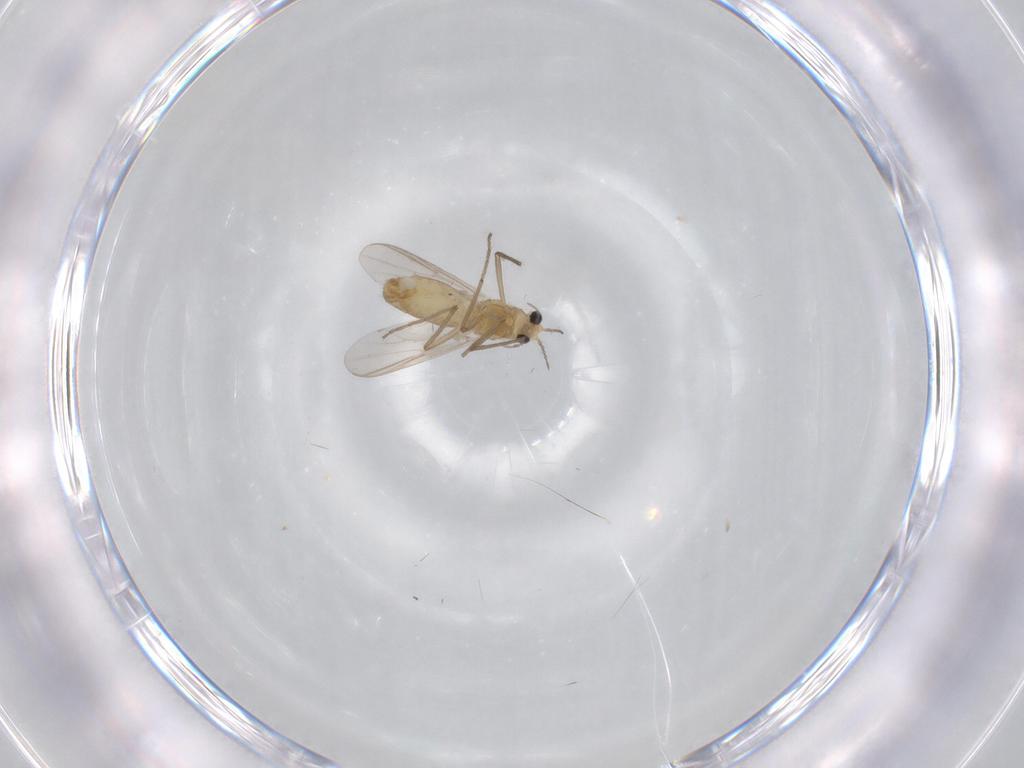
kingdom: Animalia
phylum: Arthropoda
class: Insecta
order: Diptera
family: Chironomidae
